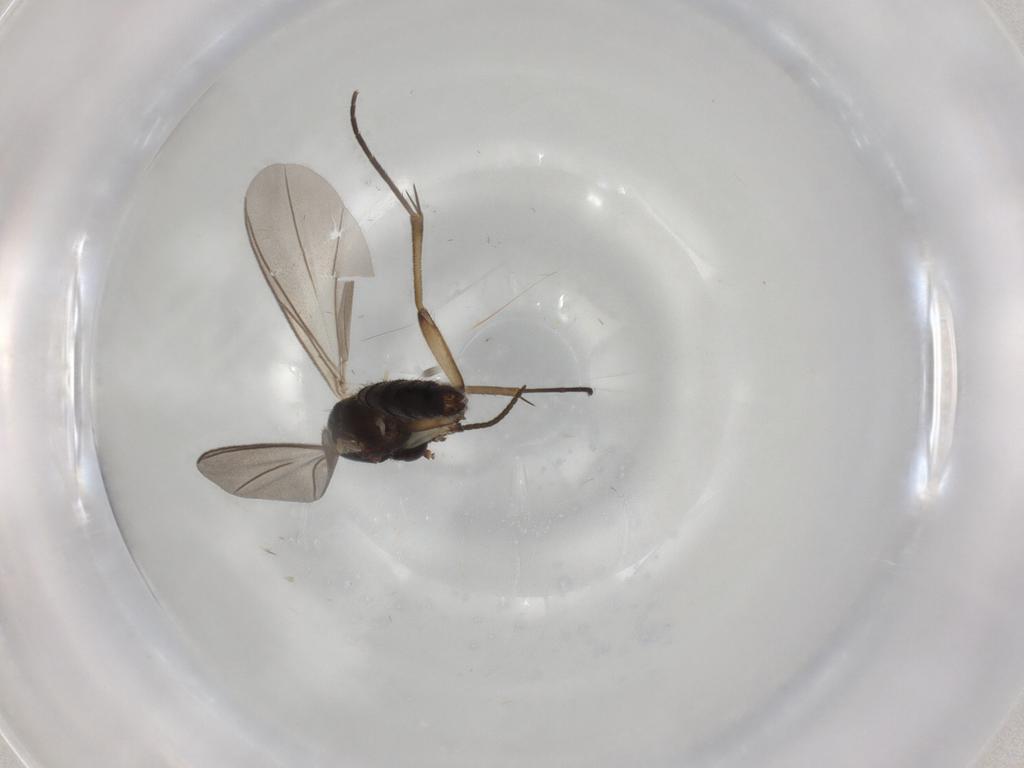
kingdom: Animalia
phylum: Arthropoda
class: Insecta
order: Diptera
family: Mycetophilidae
